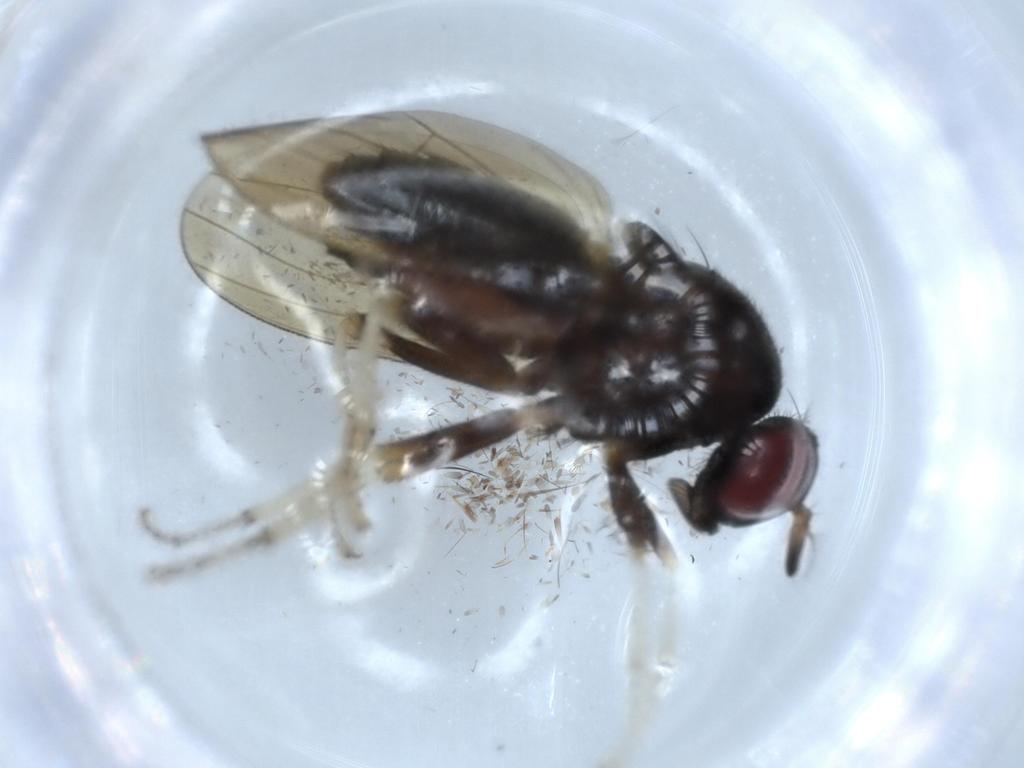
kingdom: Animalia
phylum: Arthropoda
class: Insecta
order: Diptera
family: Sciaridae
